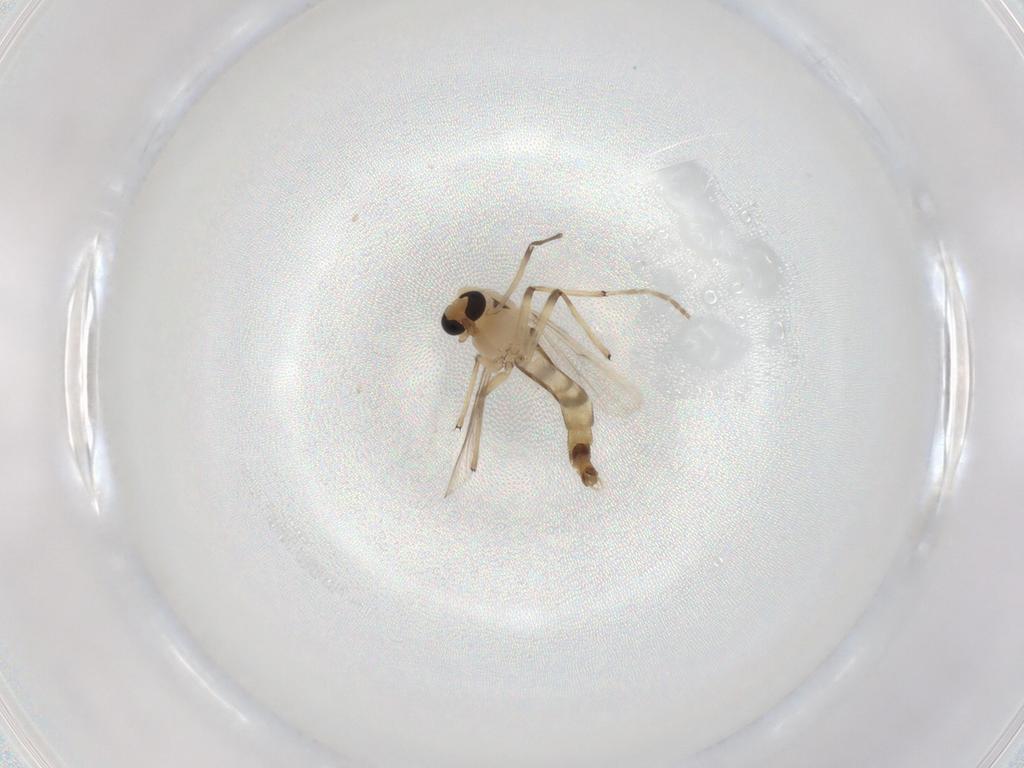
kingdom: Animalia
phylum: Arthropoda
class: Insecta
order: Diptera
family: Chironomidae
